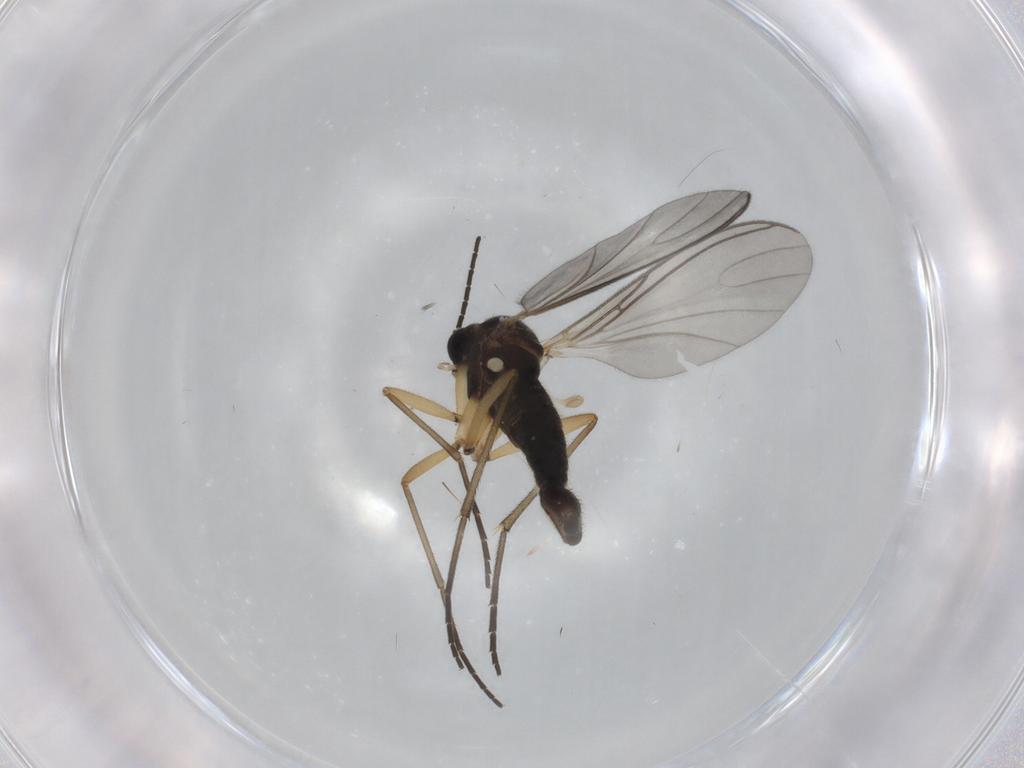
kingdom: Animalia
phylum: Arthropoda
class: Insecta
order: Diptera
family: Sciaridae
